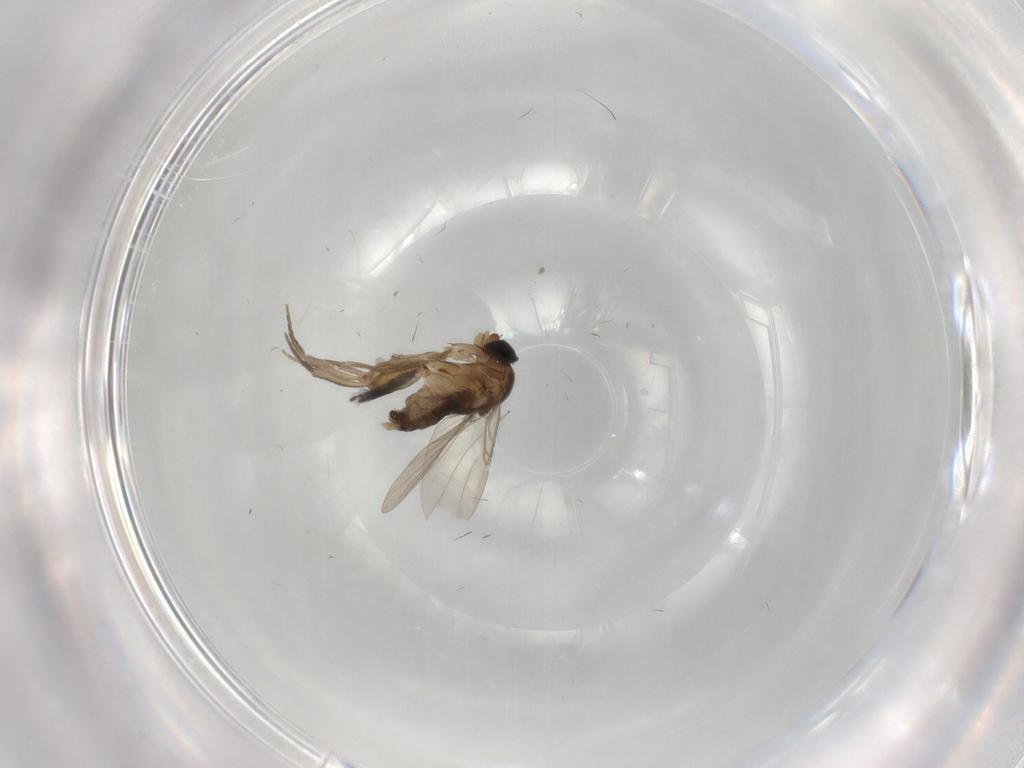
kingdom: Animalia
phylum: Arthropoda
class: Insecta
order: Diptera
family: Phoridae
